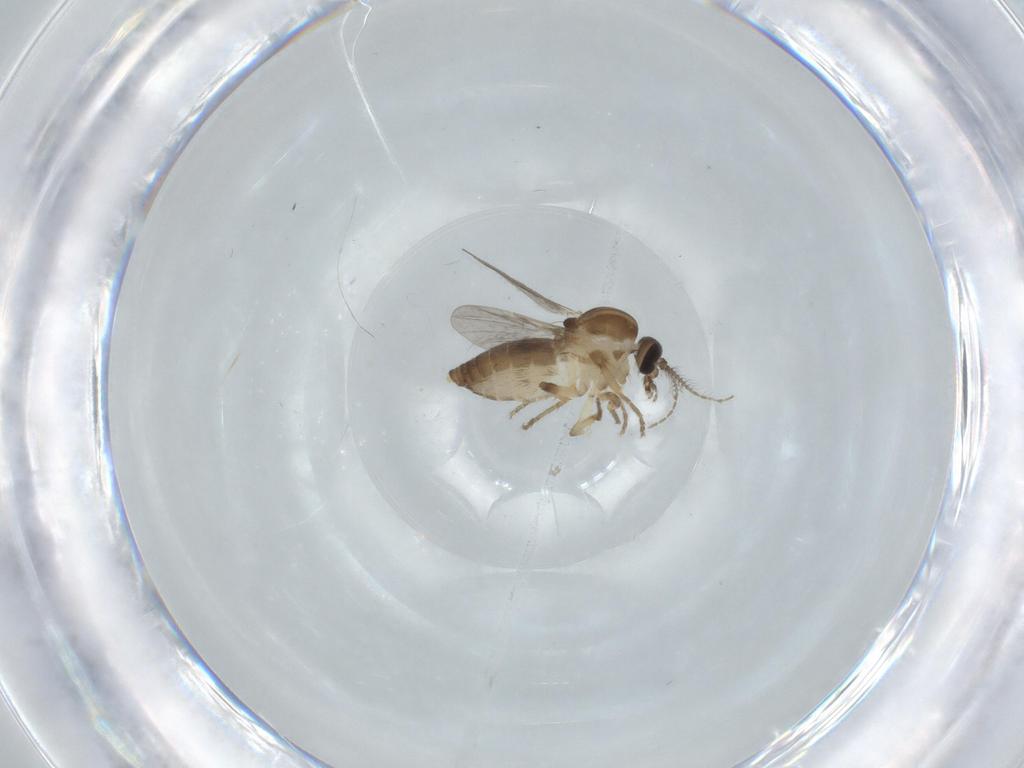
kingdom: Animalia
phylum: Arthropoda
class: Insecta
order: Diptera
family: Ceratopogonidae
